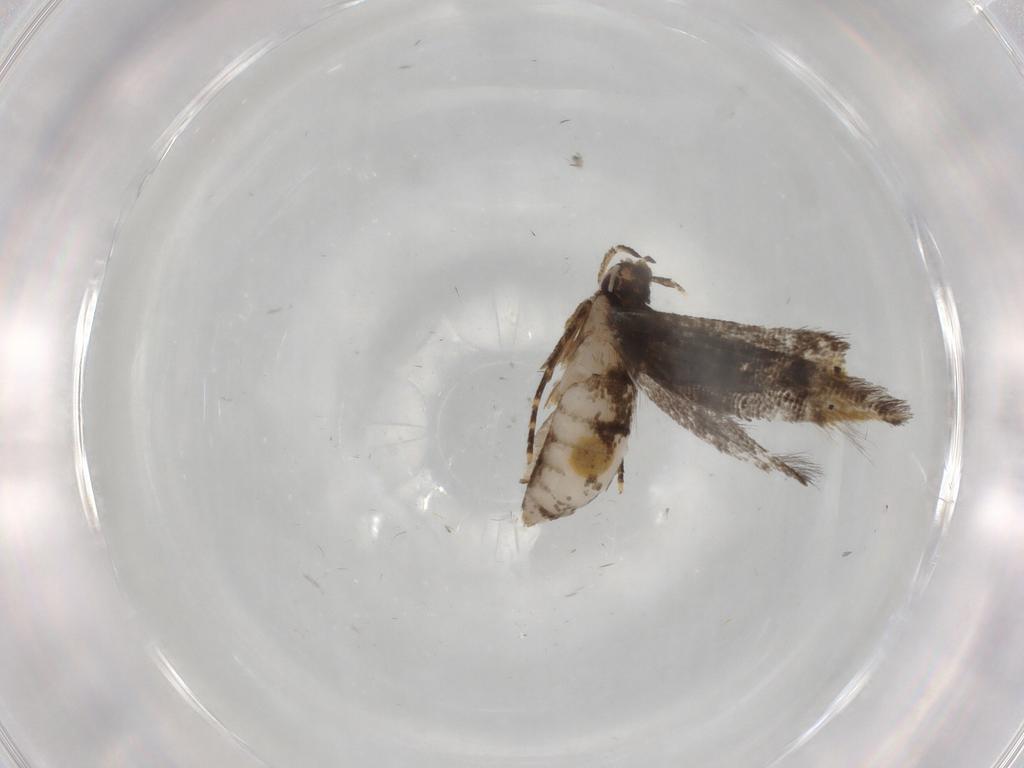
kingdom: Animalia
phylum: Arthropoda
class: Insecta
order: Lepidoptera
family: Cosmopterigidae
